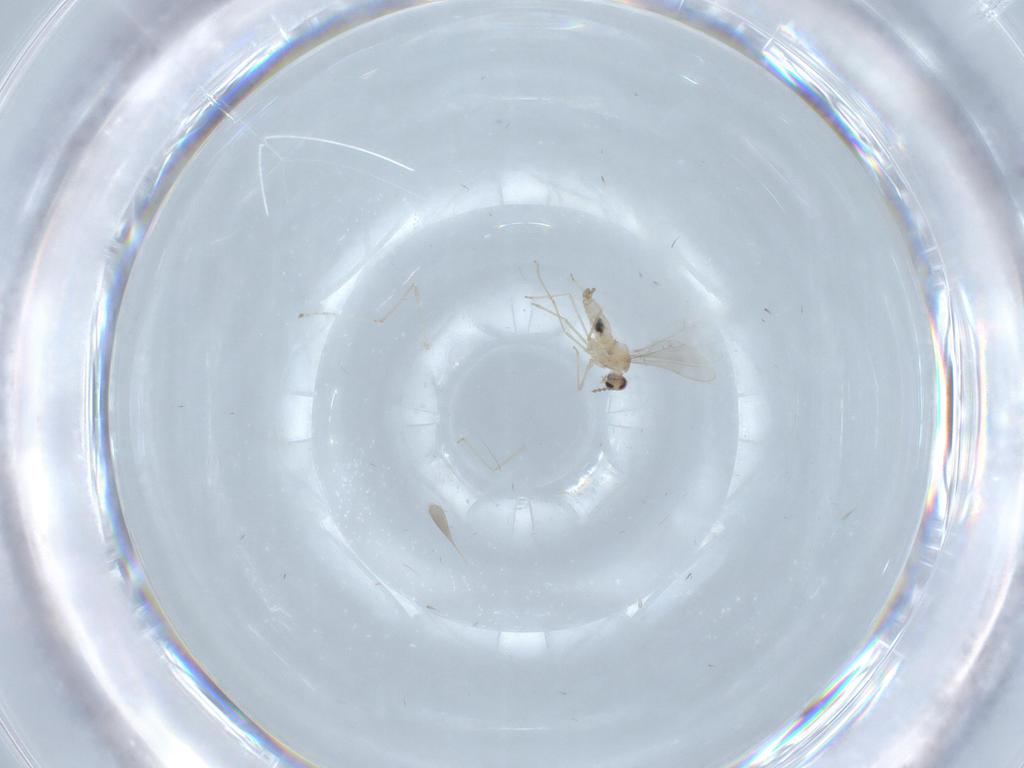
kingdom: Animalia
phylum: Arthropoda
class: Insecta
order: Diptera
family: Cecidomyiidae
